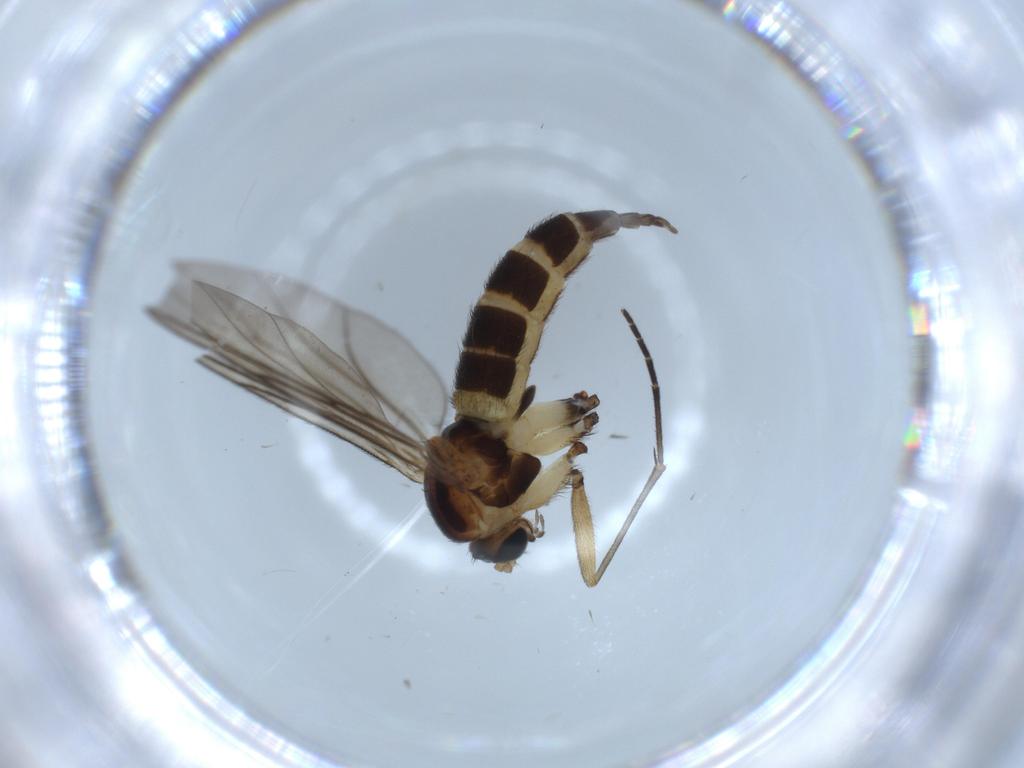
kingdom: Animalia
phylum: Arthropoda
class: Insecta
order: Diptera
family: Sciaridae
